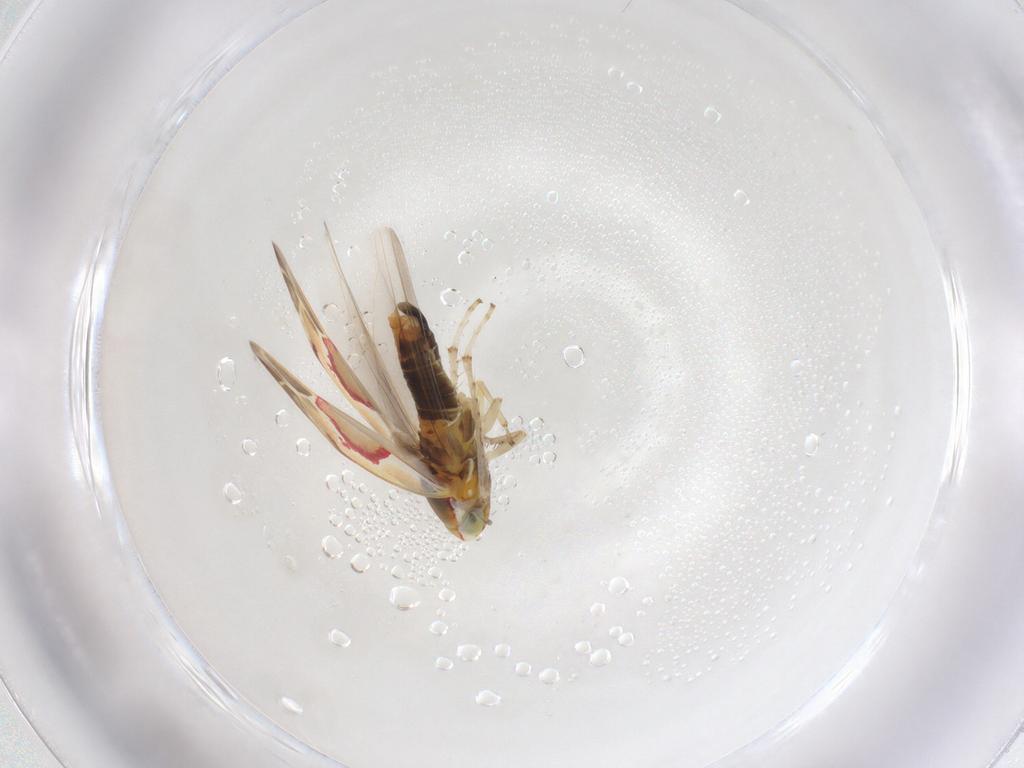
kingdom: Animalia
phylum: Arthropoda
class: Insecta
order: Hemiptera
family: Cicadellidae
